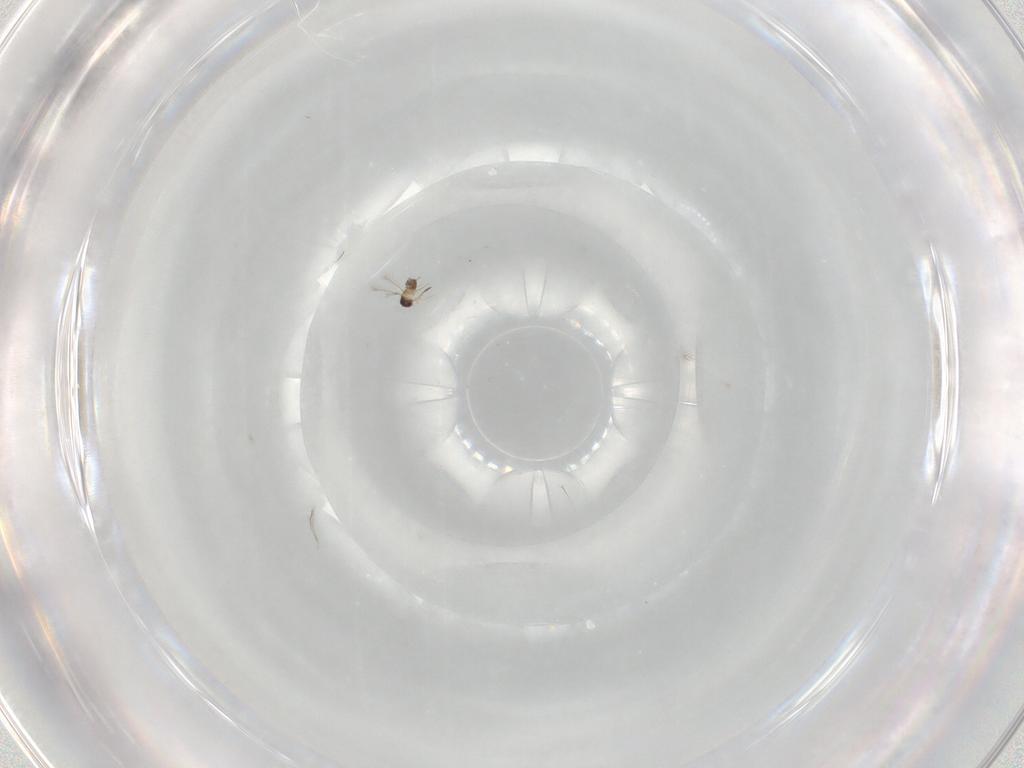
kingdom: Animalia
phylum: Arthropoda
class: Insecta
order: Hymenoptera
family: Mymaridae
